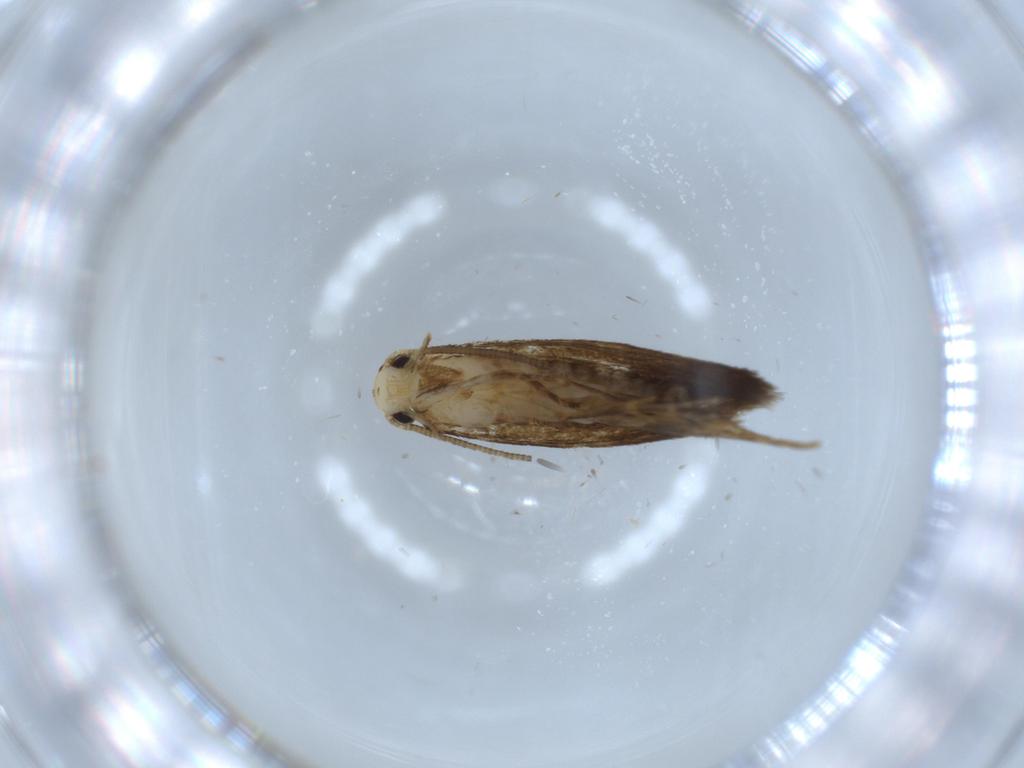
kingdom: Animalia
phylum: Arthropoda
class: Insecta
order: Lepidoptera
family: Tineidae
